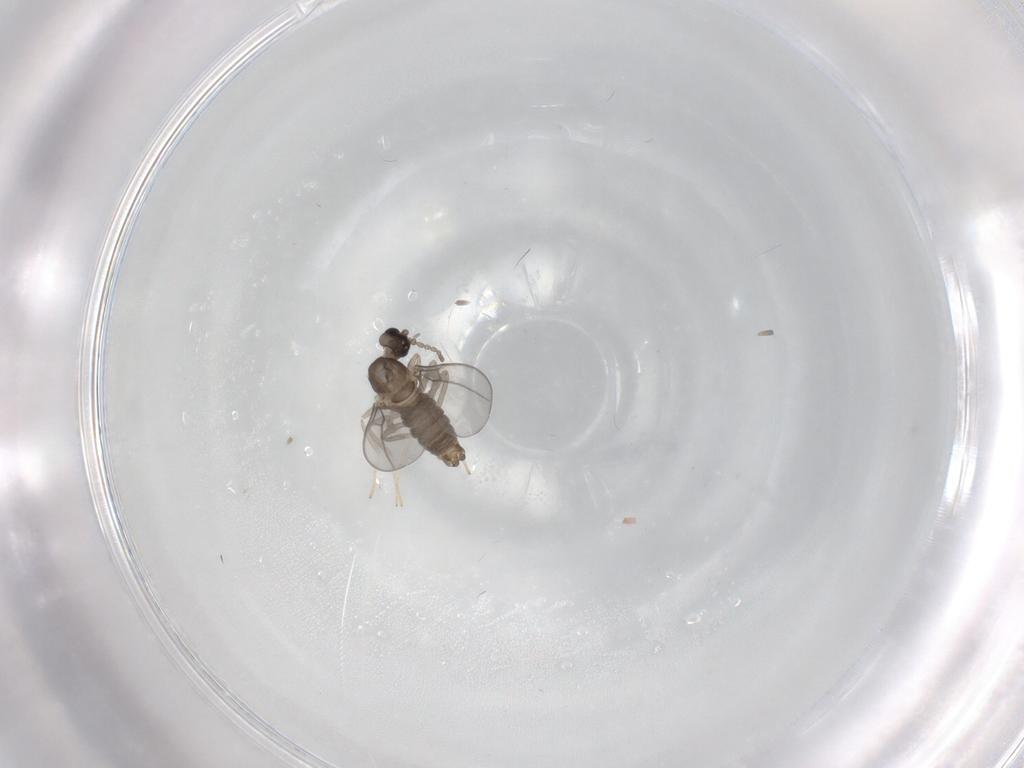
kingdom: Animalia
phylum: Arthropoda
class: Insecta
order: Diptera
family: Cecidomyiidae
